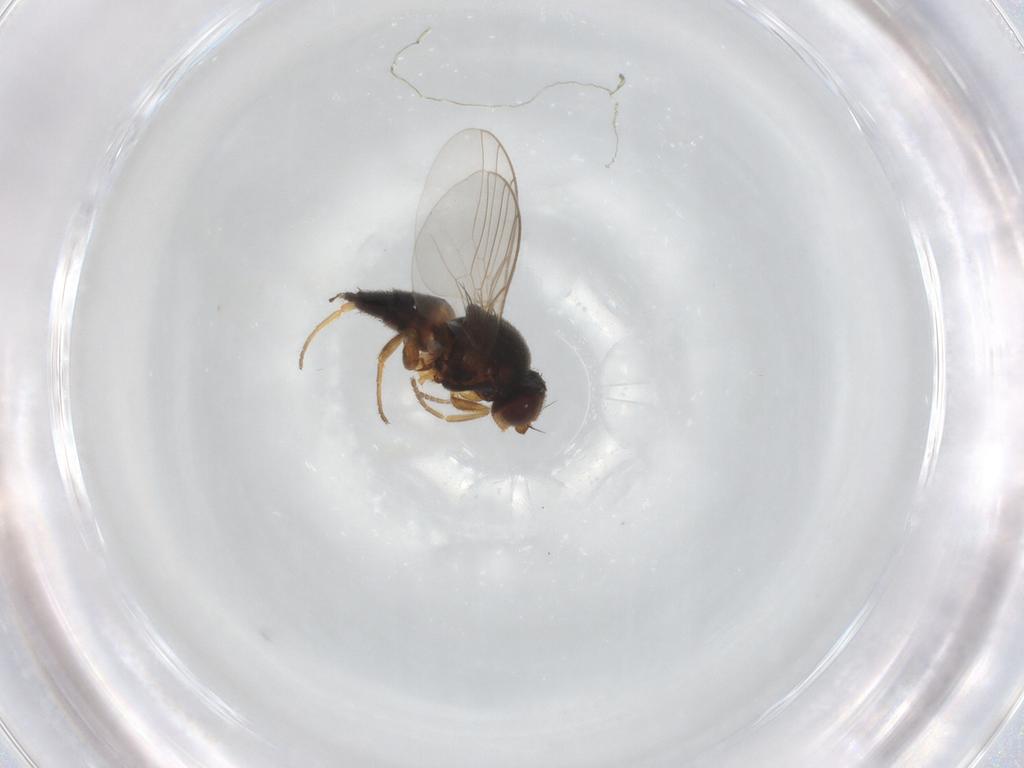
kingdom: Animalia
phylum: Arthropoda
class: Insecta
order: Diptera
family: Chloropidae
